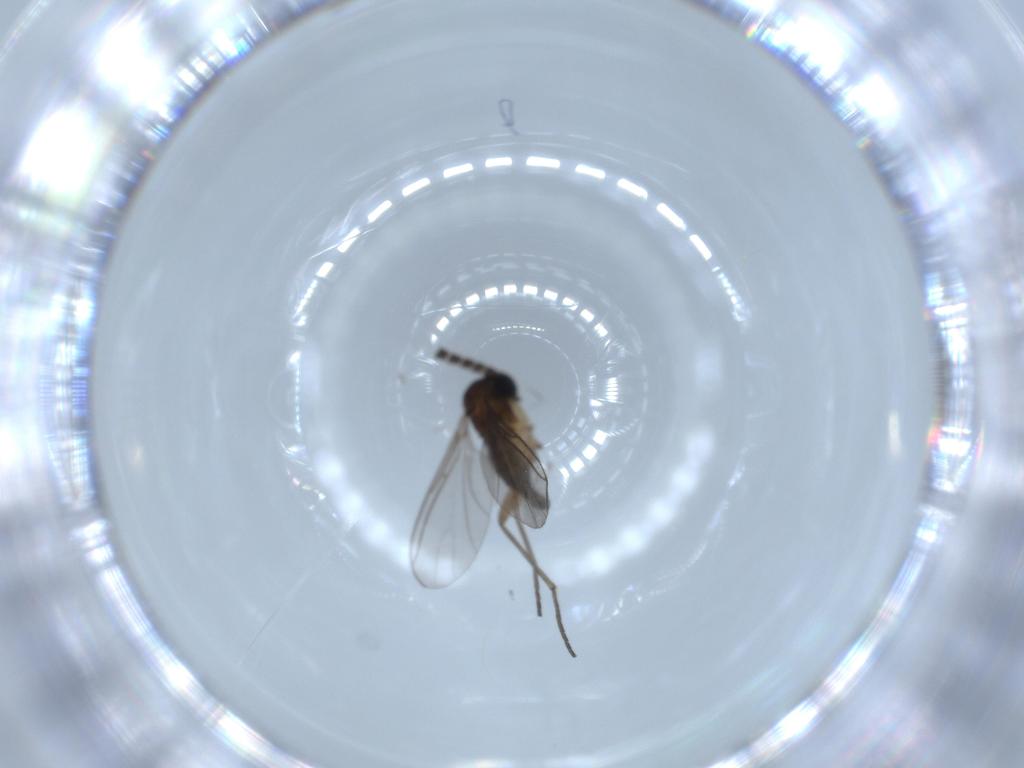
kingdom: Animalia
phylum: Arthropoda
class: Insecta
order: Diptera
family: Sciaridae
